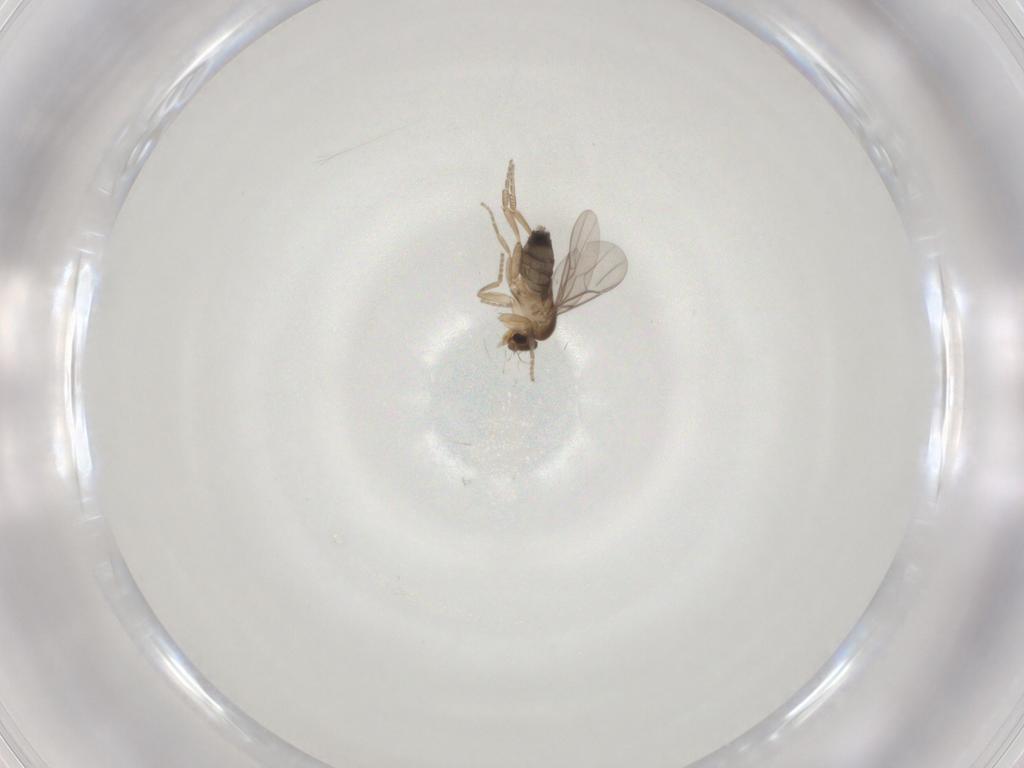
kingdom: Animalia
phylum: Arthropoda
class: Insecta
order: Diptera
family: Phoridae
